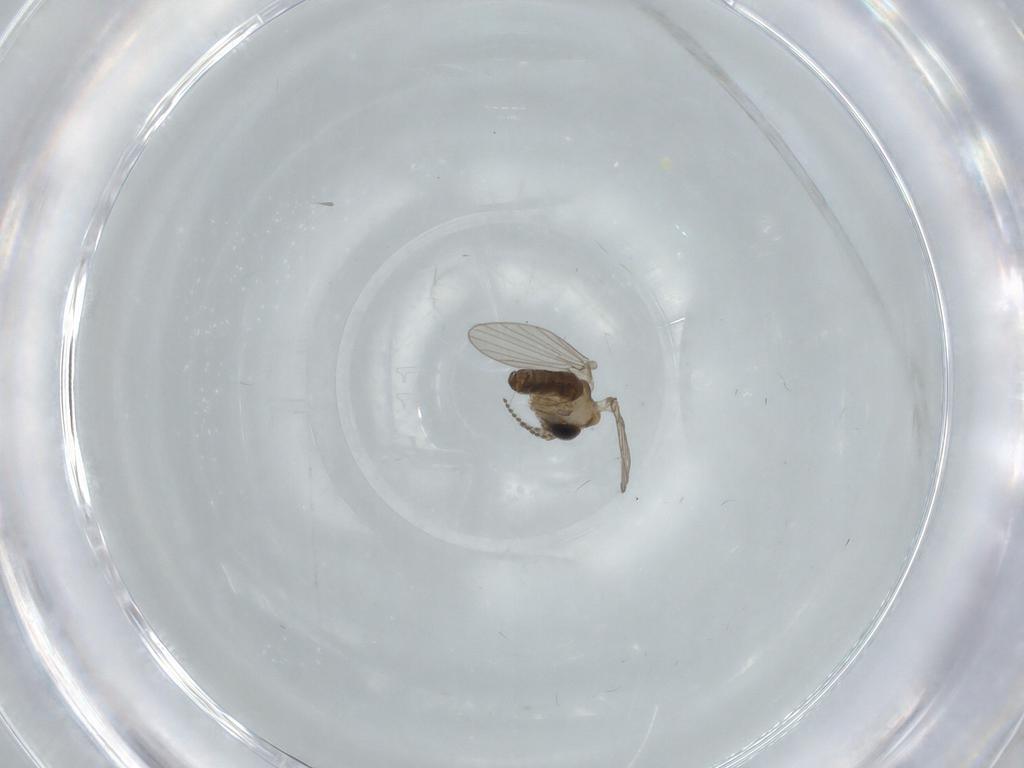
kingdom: Animalia
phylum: Arthropoda
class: Insecta
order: Diptera
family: Psychodidae
